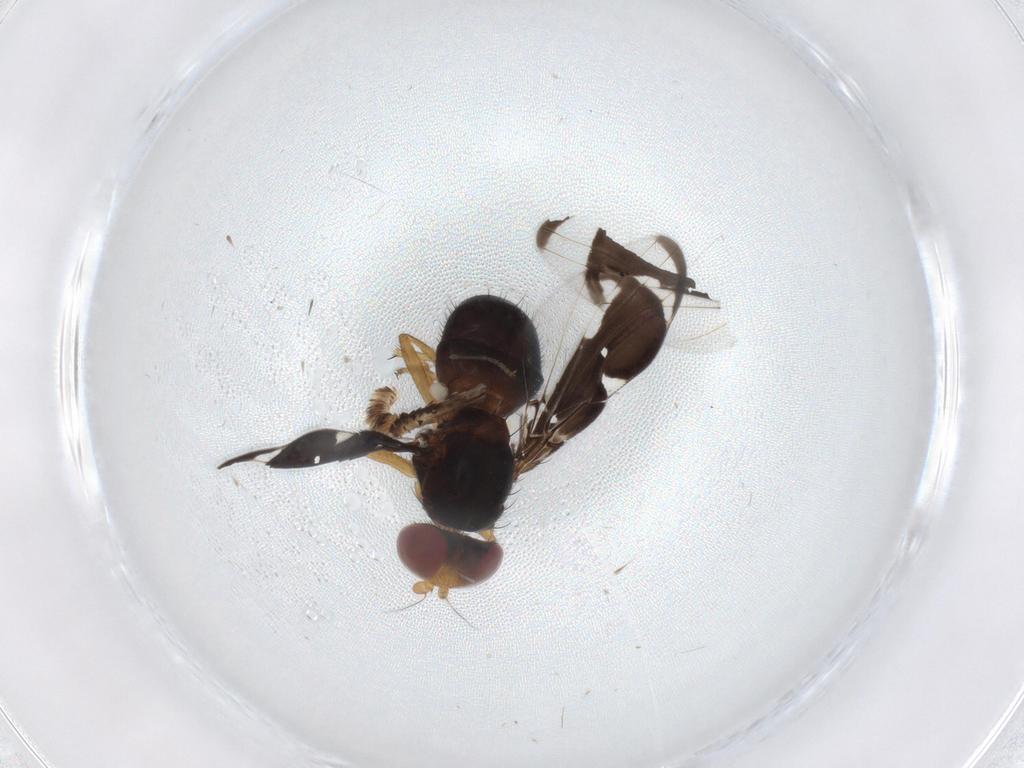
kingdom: Animalia
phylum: Arthropoda
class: Insecta
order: Diptera
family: Ulidiidae
